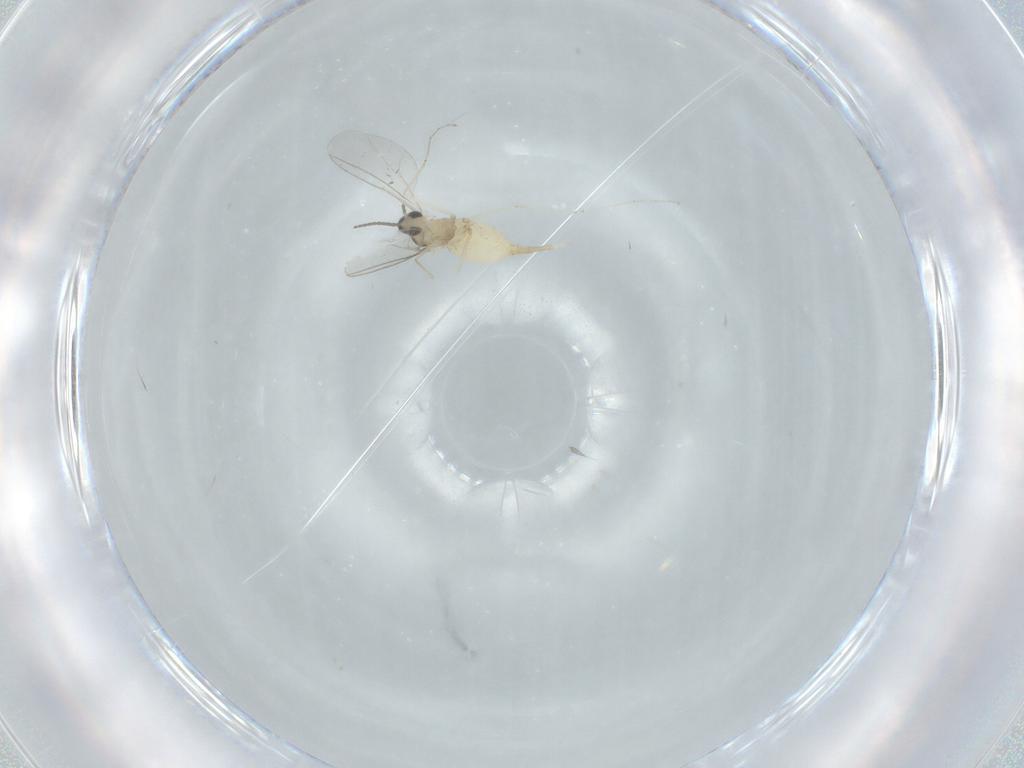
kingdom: Animalia
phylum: Arthropoda
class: Insecta
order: Diptera
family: Cecidomyiidae
